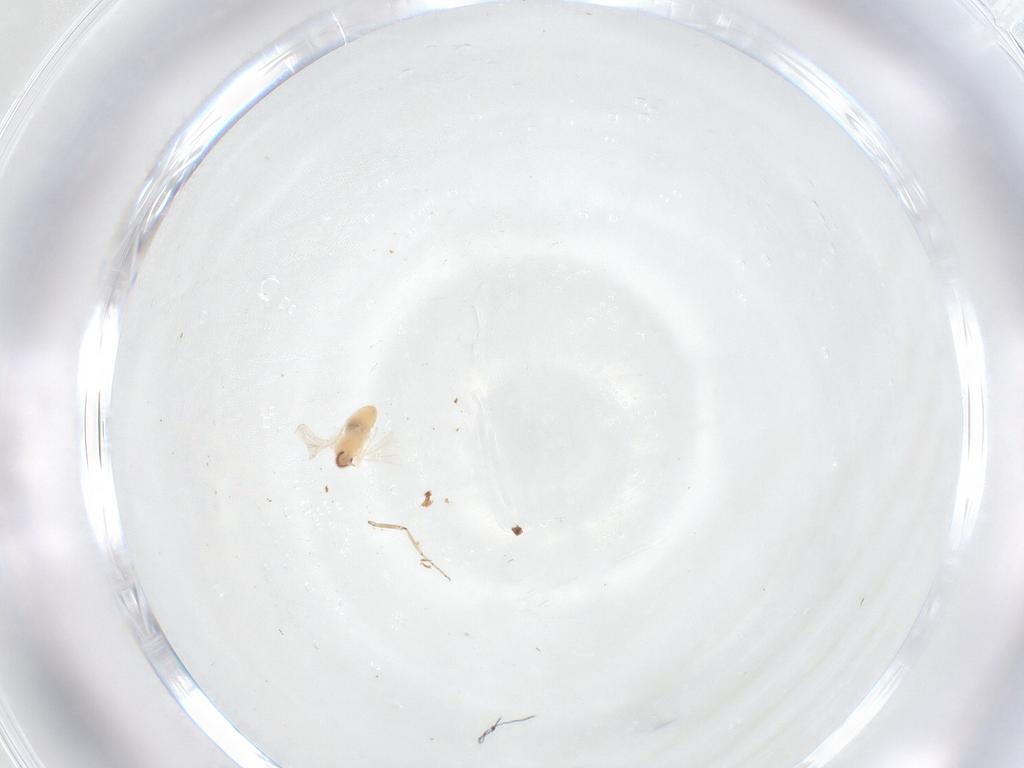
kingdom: Animalia
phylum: Arthropoda
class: Insecta
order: Diptera
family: Cecidomyiidae
